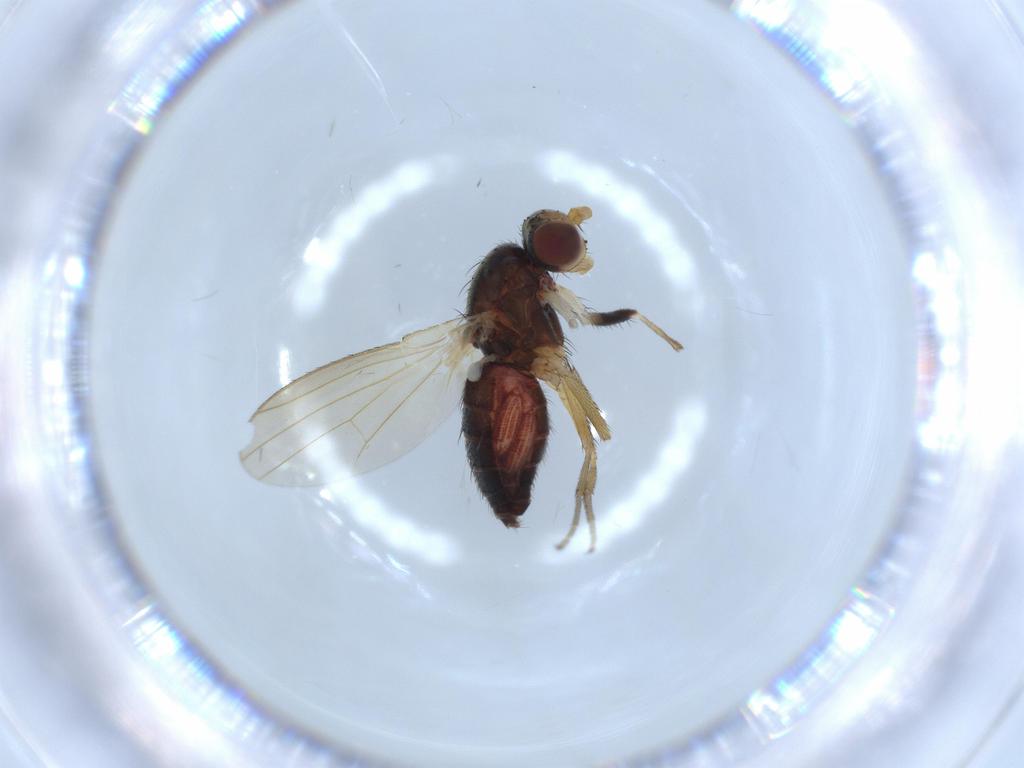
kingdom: Animalia
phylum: Arthropoda
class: Insecta
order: Diptera
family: Heleomyzidae
